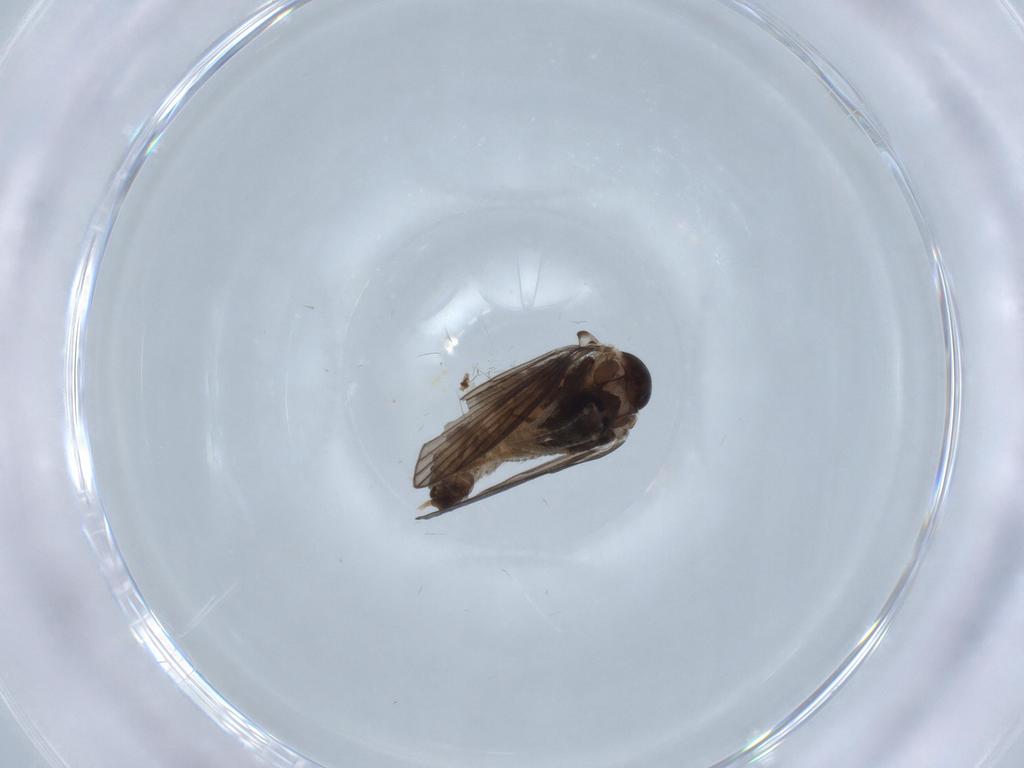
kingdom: Animalia
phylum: Arthropoda
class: Insecta
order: Diptera
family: Psychodidae
